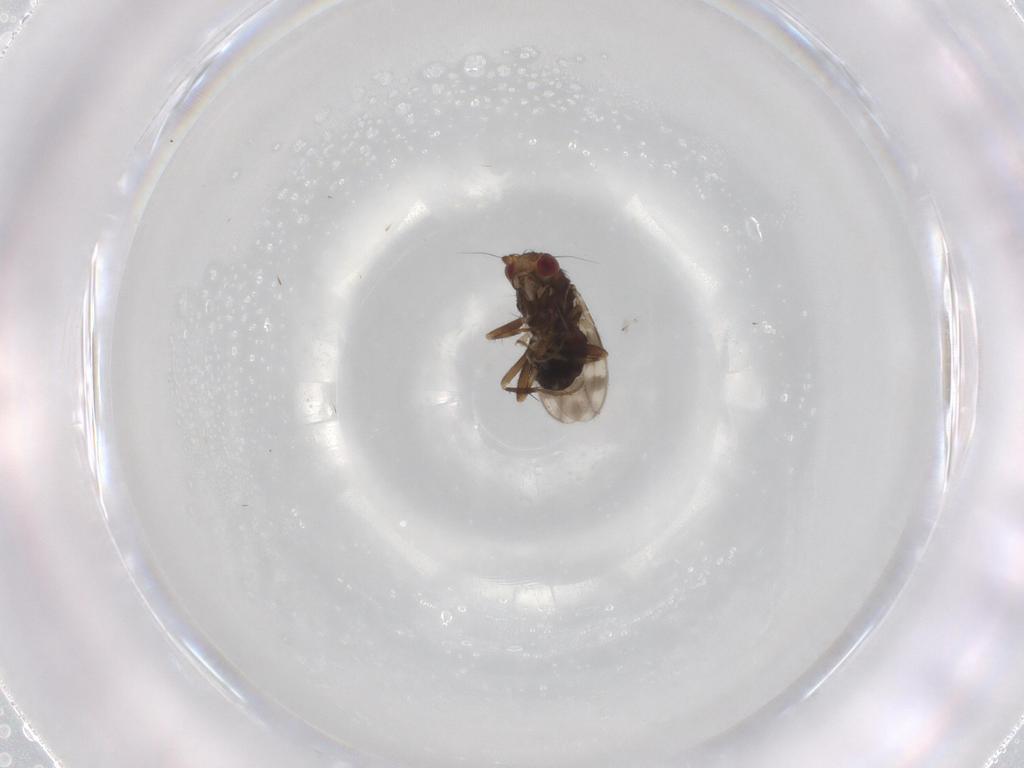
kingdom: Animalia
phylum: Arthropoda
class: Insecta
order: Diptera
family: Sphaeroceridae
